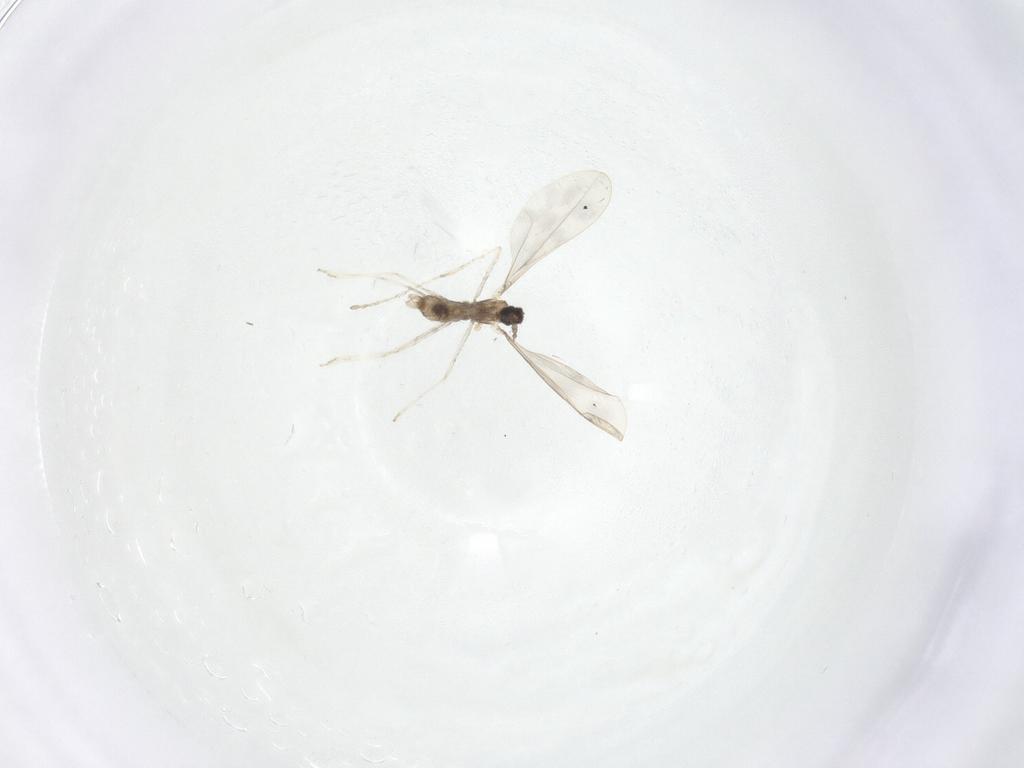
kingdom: Animalia
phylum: Arthropoda
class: Insecta
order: Diptera
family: Cecidomyiidae
